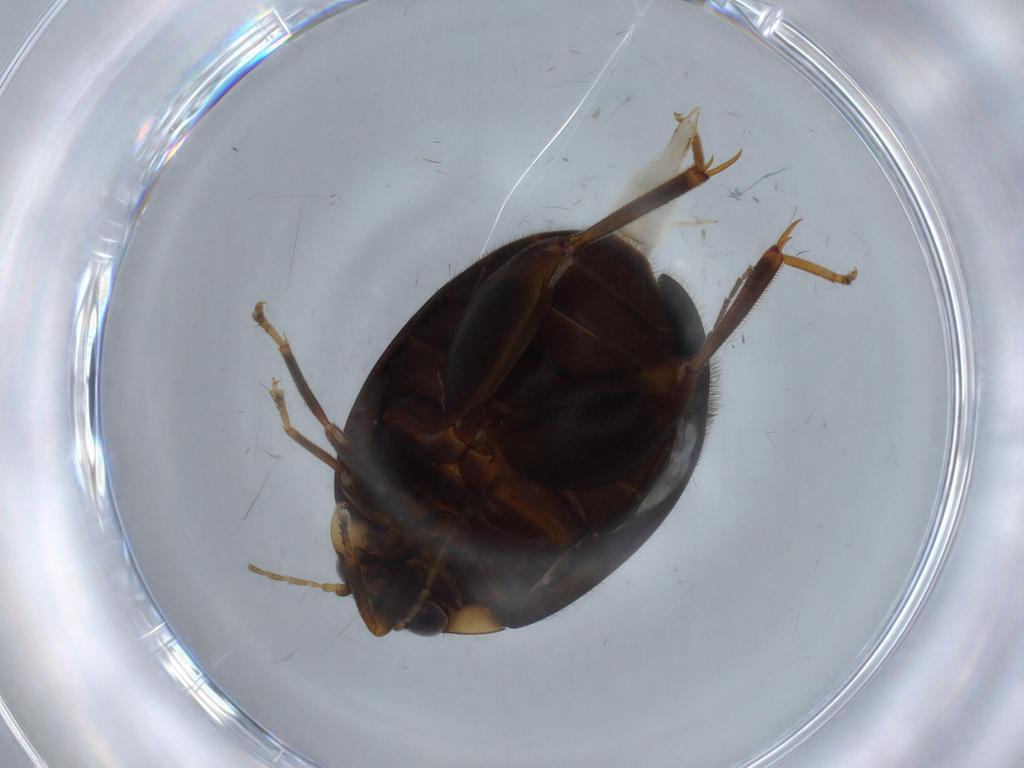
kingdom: Animalia
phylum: Arthropoda
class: Insecta
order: Coleoptera
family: Scirtidae
